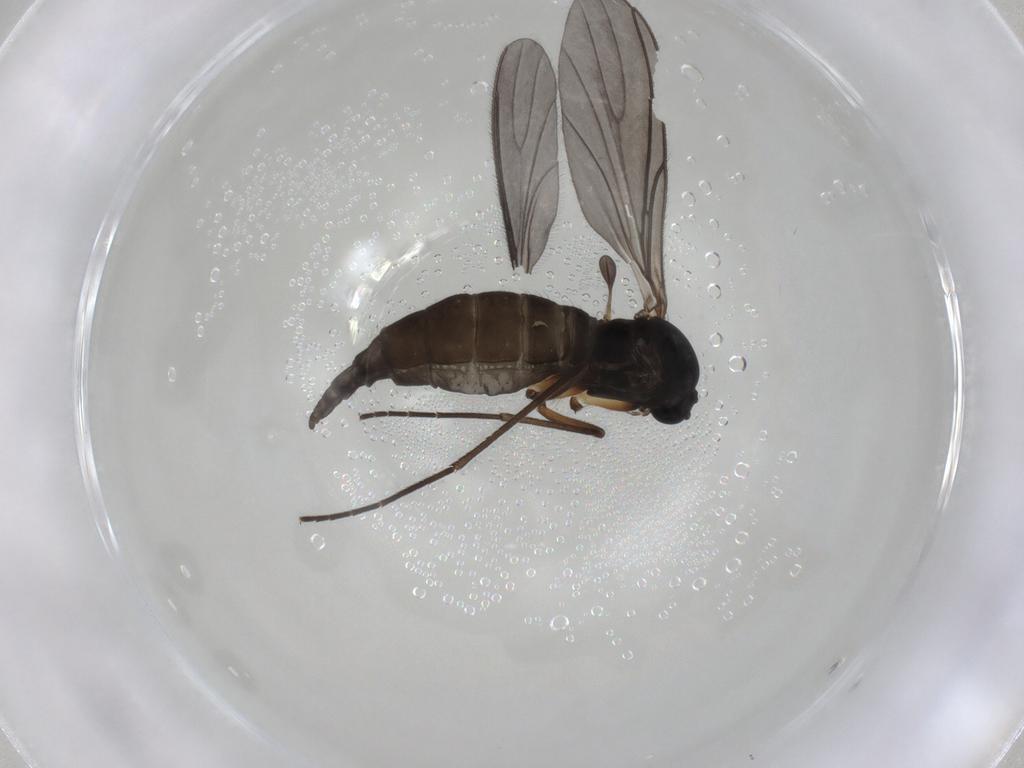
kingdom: Animalia
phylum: Arthropoda
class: Insecta
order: Diptera
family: Sciaridae
